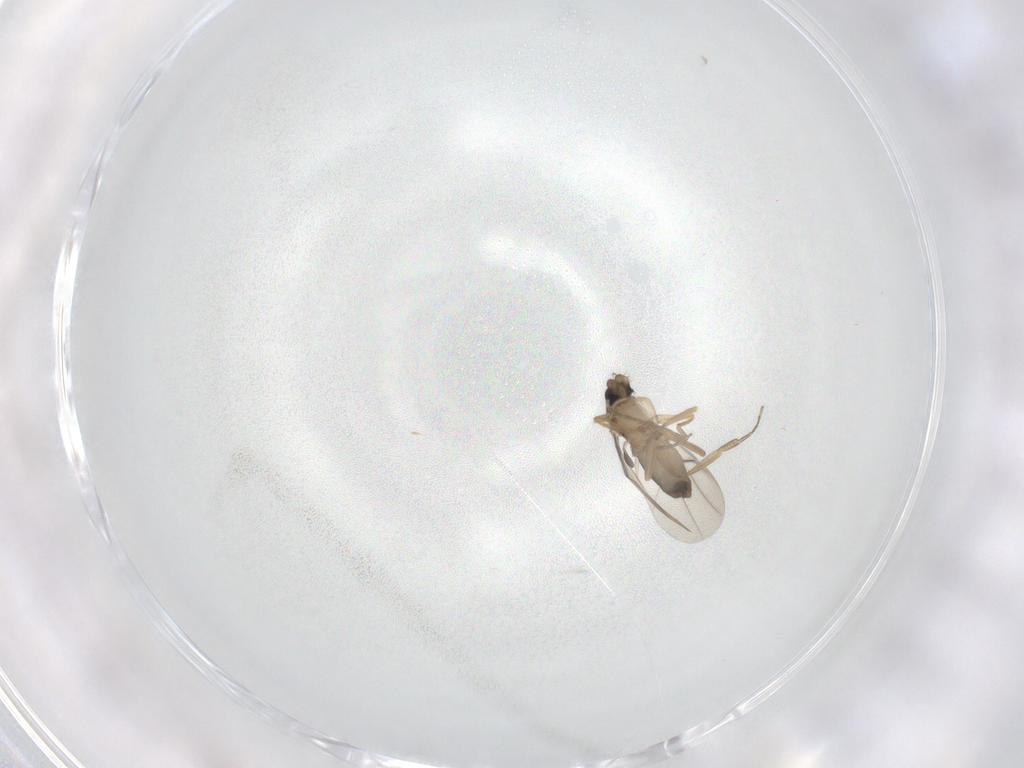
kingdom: Animalia
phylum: Arthropoda
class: Insecta
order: Diptera
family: Phoridae
